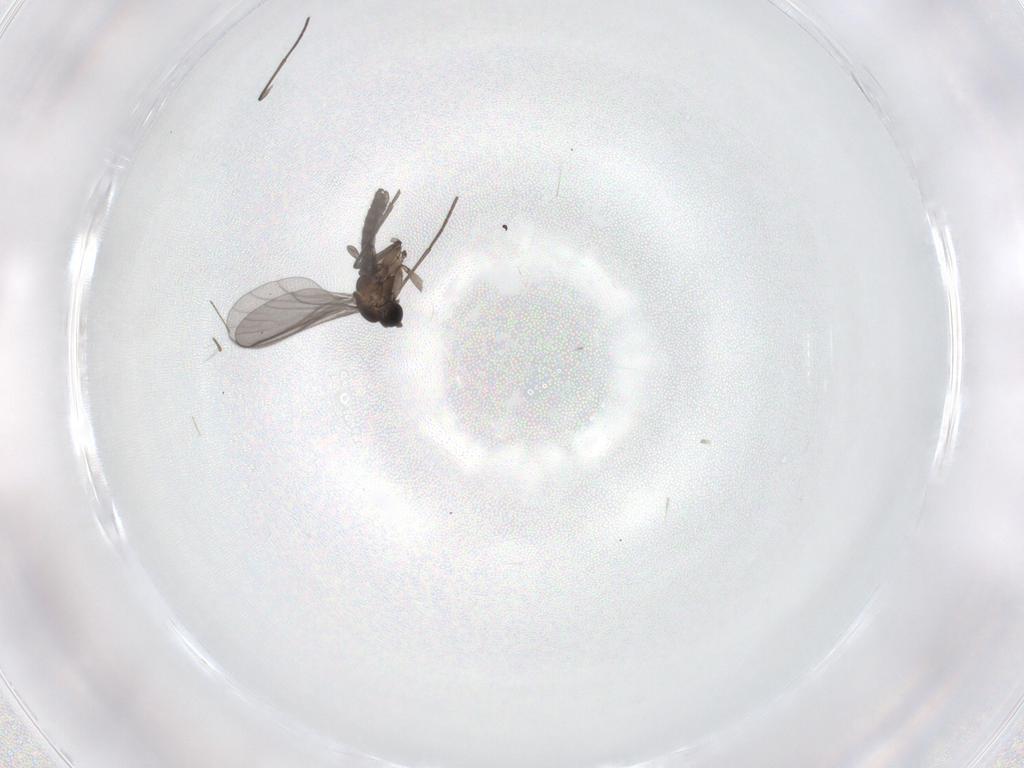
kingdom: Animalia
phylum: Arthropoda
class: Insecta
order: Diptera
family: Chironomidae
